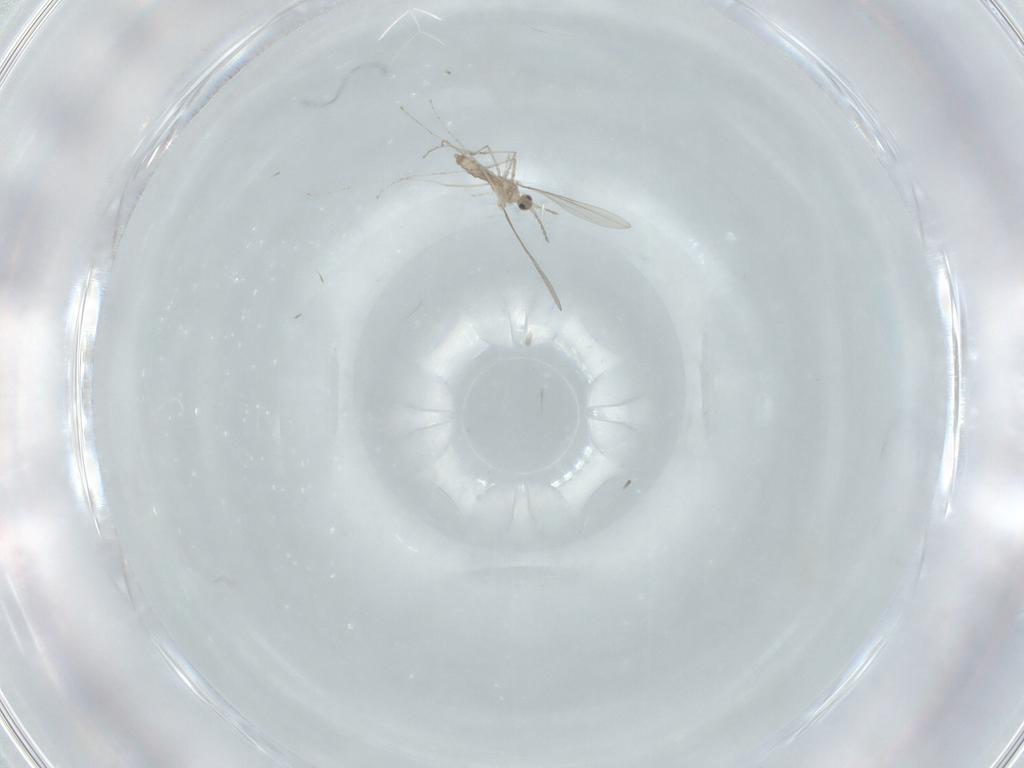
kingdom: Animalia
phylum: Arthropoda
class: Insecta
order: Diptera
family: Cecidomyiidae
